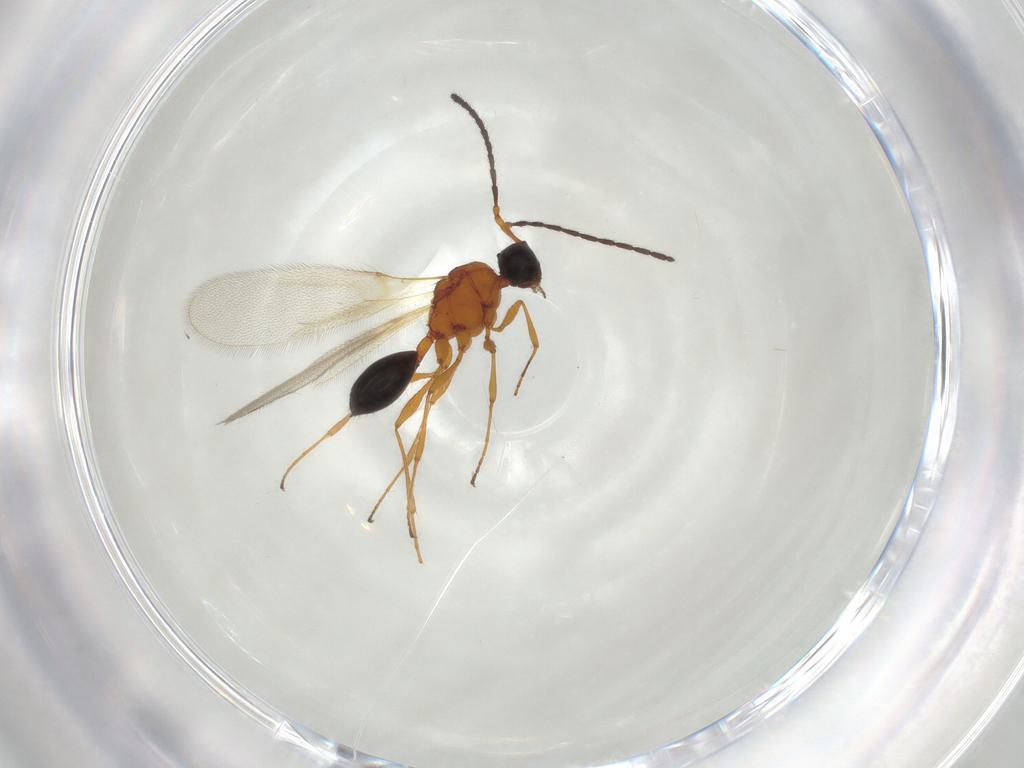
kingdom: Animalia
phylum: Arthropoda
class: Insecta
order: Hymenoptera
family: Diapriidae
